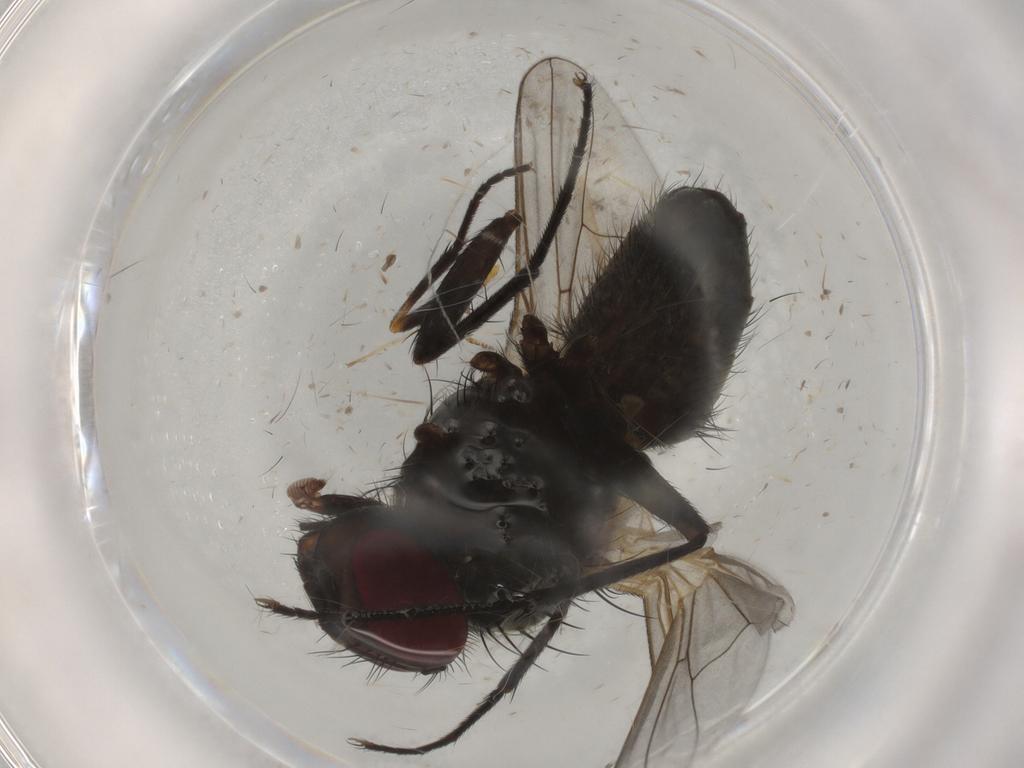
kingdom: Animalia
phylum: Arthropoda
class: Insecta
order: Diptera
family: Muscidae
